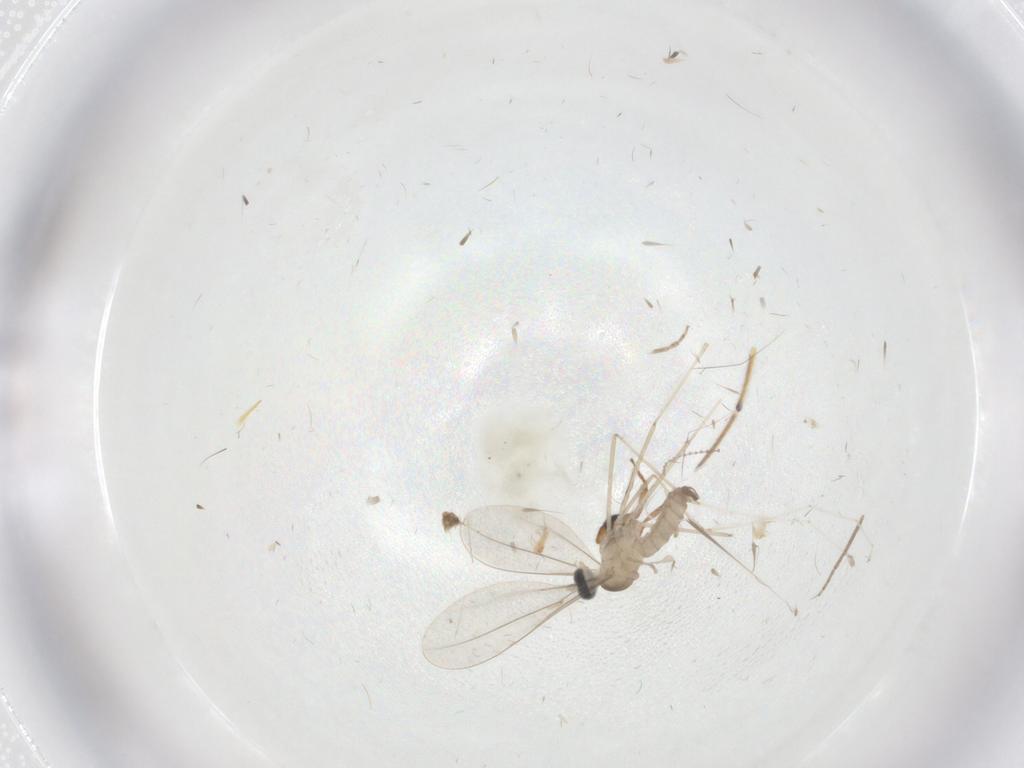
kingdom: Animalia
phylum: Arthropoda
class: Insecta
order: Diptera
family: Cecidomyiidae
